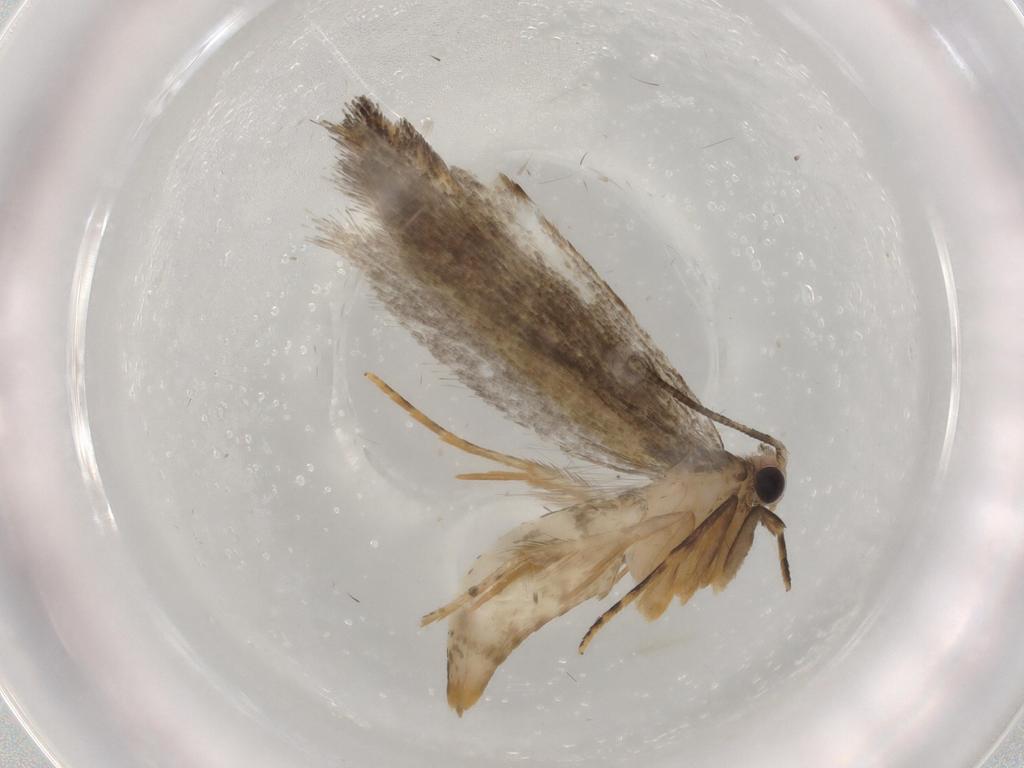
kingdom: Animalia
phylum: Arthropoda
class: Insecta
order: Lepidoptera
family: Tineidae
